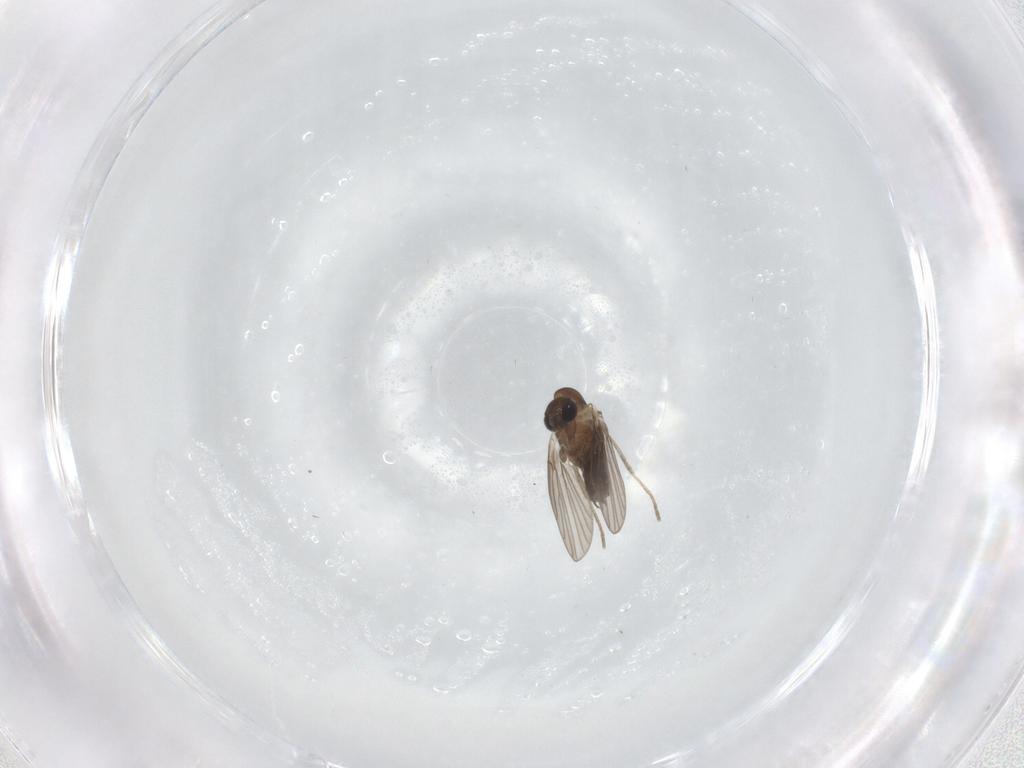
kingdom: Animalia
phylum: Arthropoda
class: Insecta
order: Diptera
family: Chironomidae
